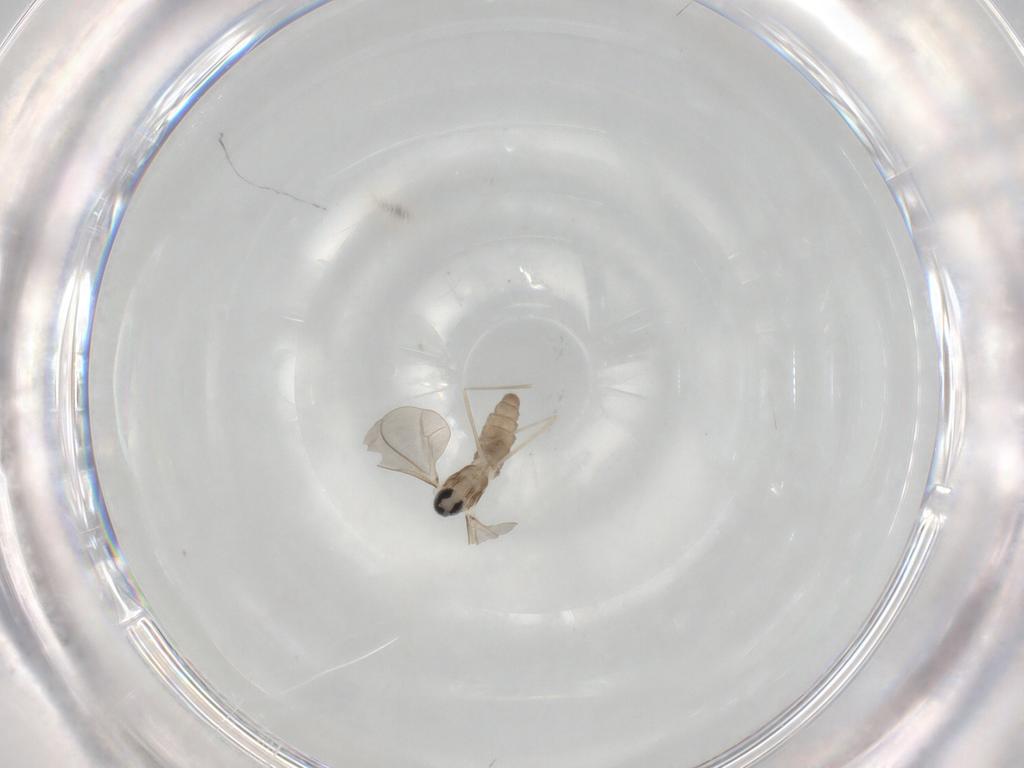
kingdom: Animalia
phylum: Arthropoda
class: Insecta
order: Diptera
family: Cecidomyiidae
